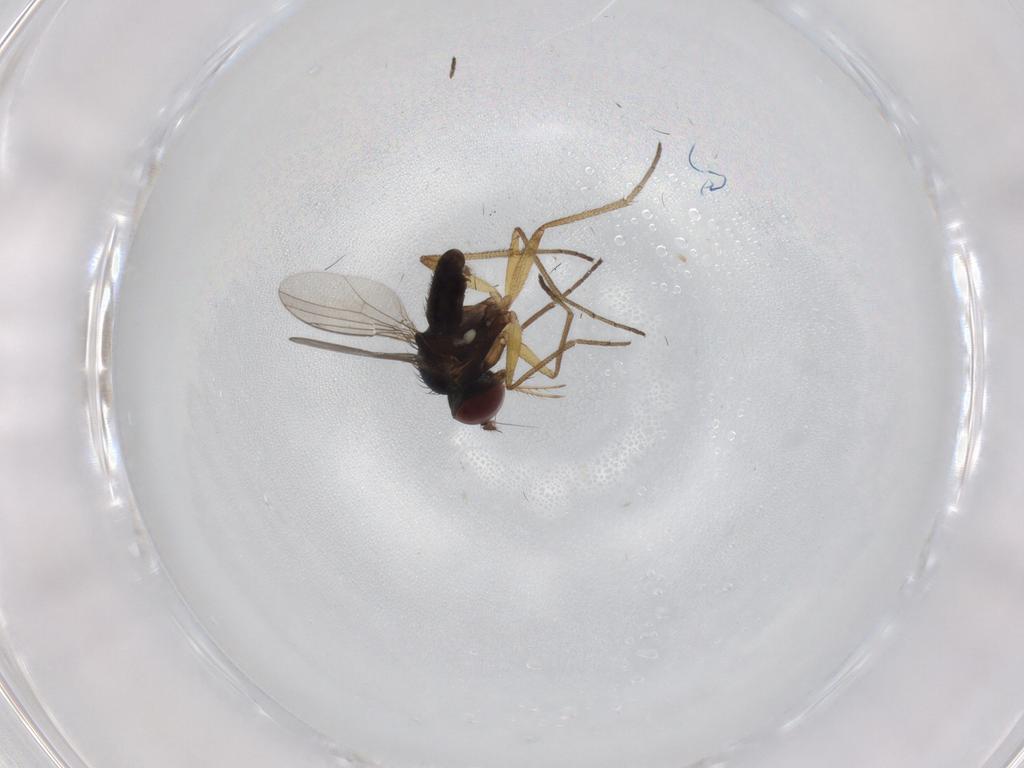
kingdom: Animalia
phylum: Arthropoda
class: Insecta
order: Diptera
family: Dolichopodidae
